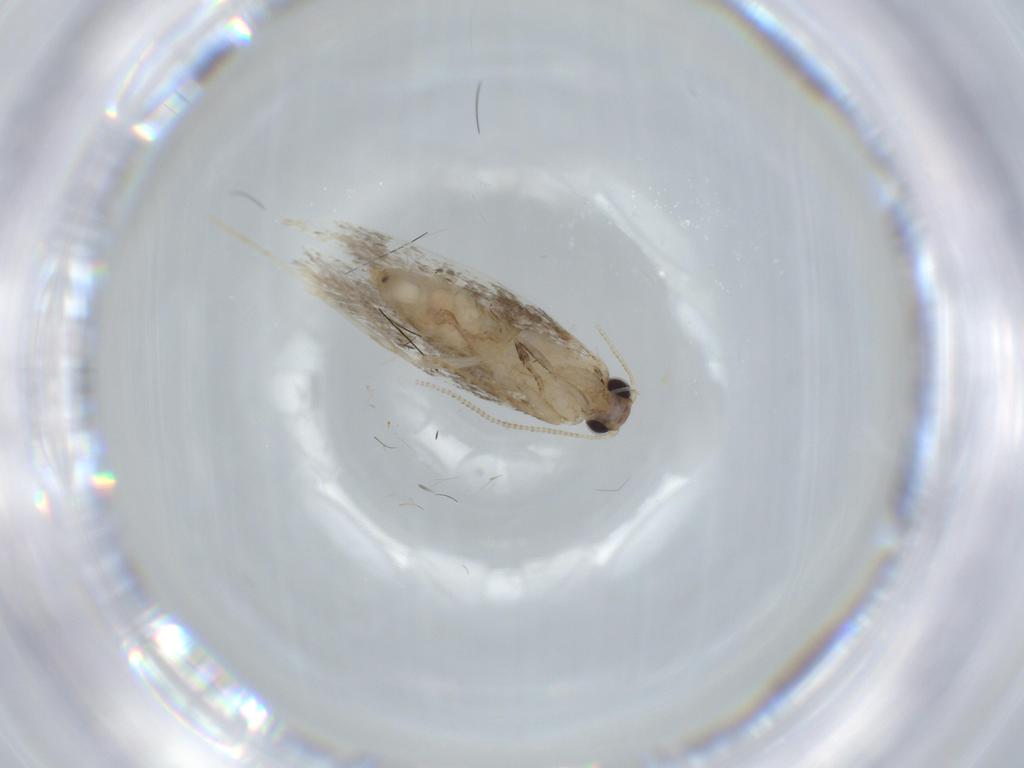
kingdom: Animalia
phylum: Arthropoda
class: Insecta
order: Lepidoptera
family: Tineidae
